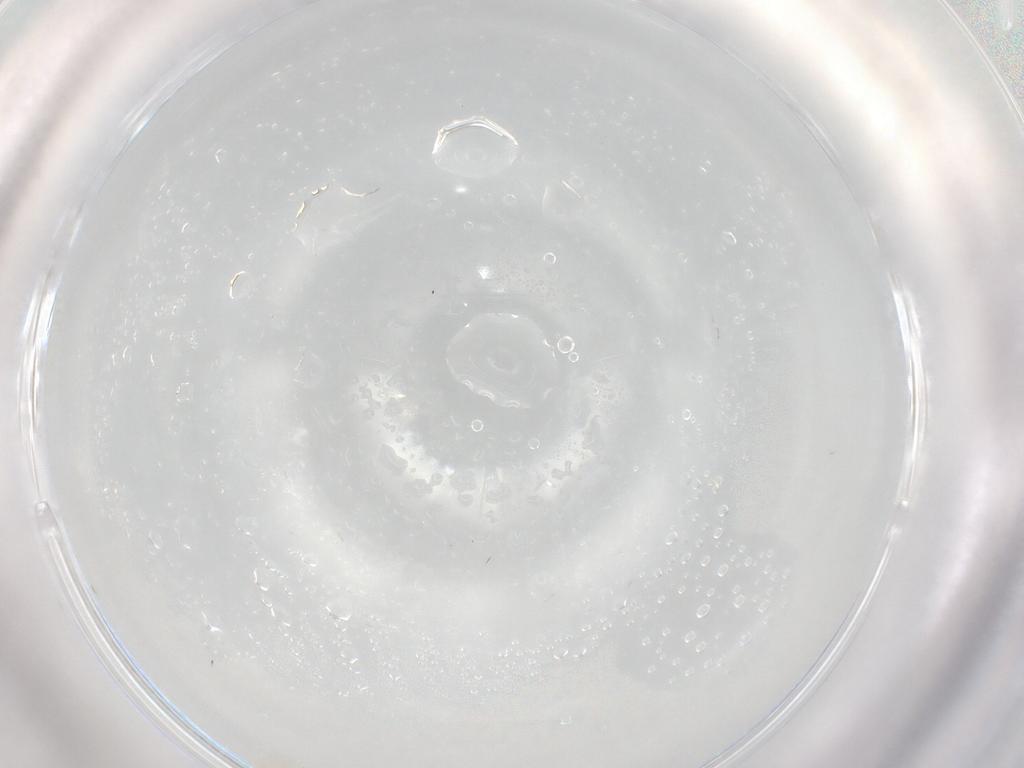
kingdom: Animalia
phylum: Arthropoda
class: Insecta
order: Diptera
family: Cecidomyiidae
